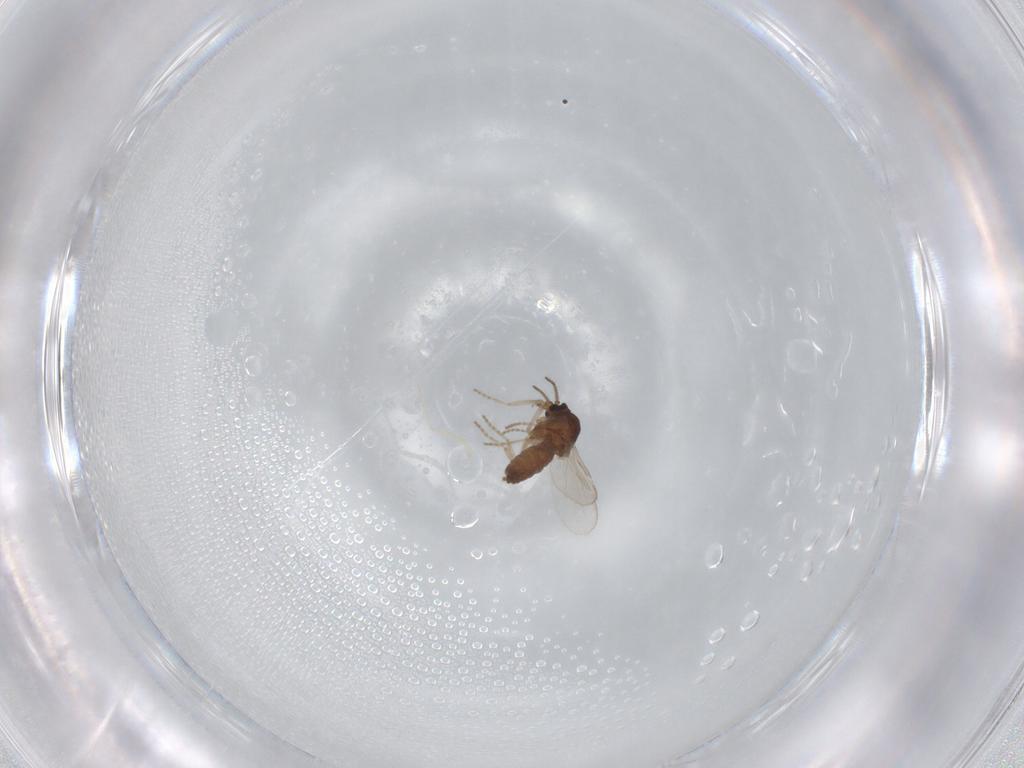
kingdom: Animalia
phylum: Arthropoda
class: Insecta
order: Diptera
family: Ceratopogonidae
